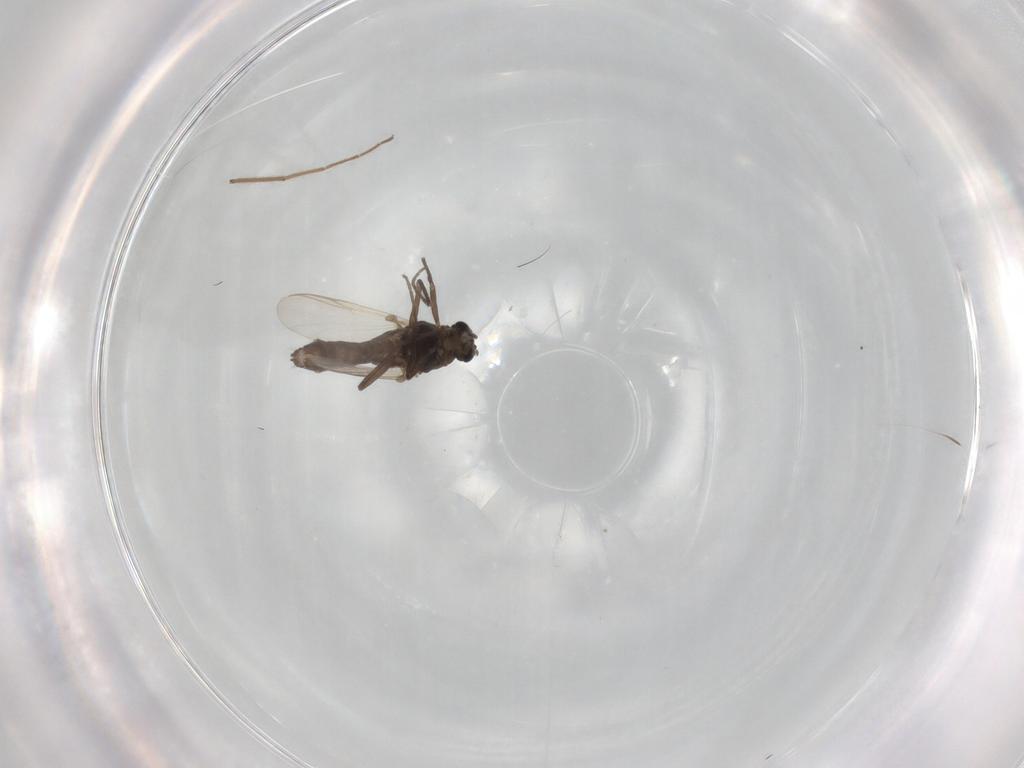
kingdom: Animalia
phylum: Arthropoda
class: Insecta
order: Diptera
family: Chironomidae
